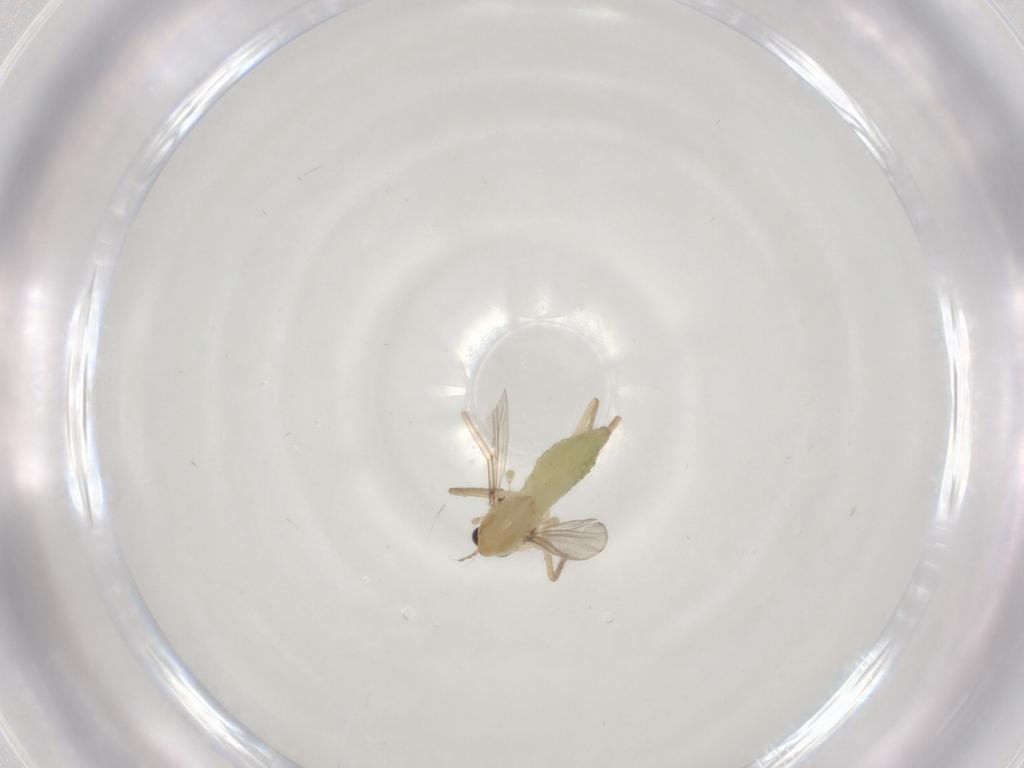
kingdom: Animalia
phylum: Arthropoda
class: Insecta
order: Diptera
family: Chironomidae
